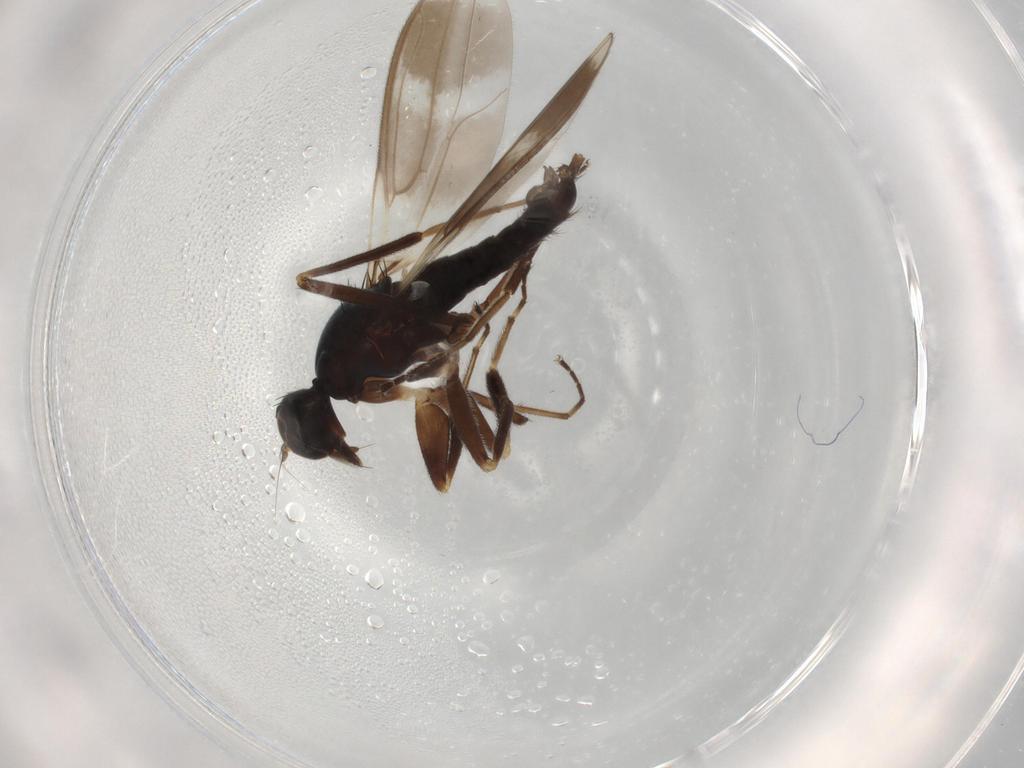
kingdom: Animalia
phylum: Arthropoda
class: Insecta
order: Diptera
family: Hybotidae
